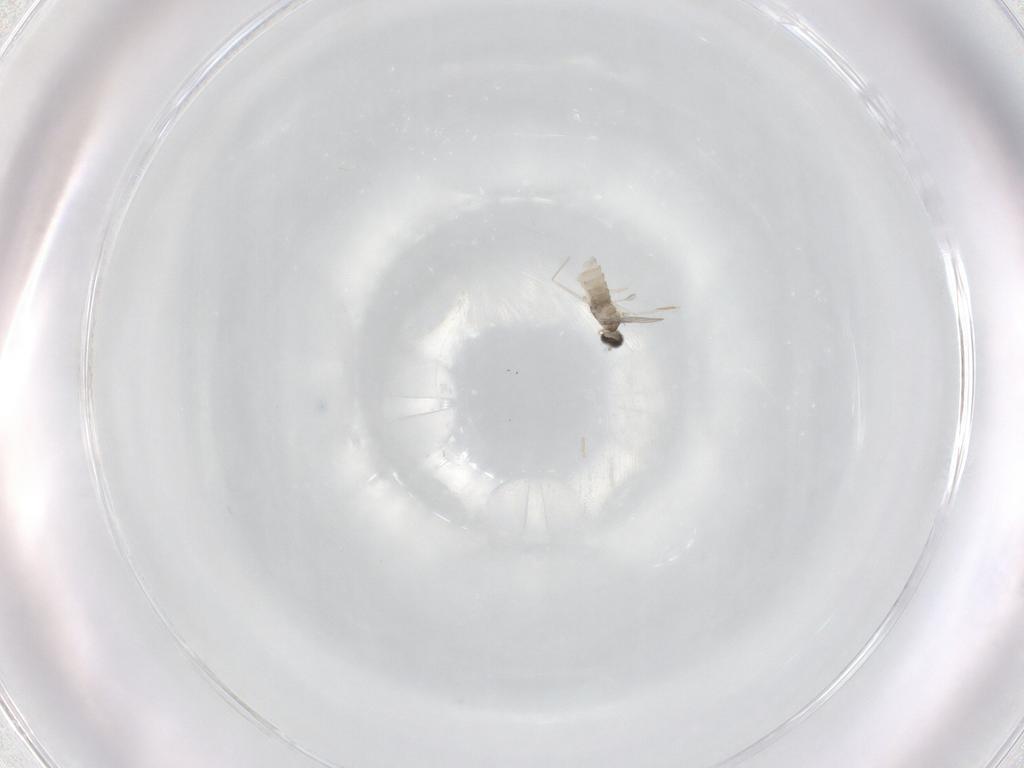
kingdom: Animalia
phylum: Arthropoda
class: Insecta
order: Diptera
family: Ceratopogonidae
